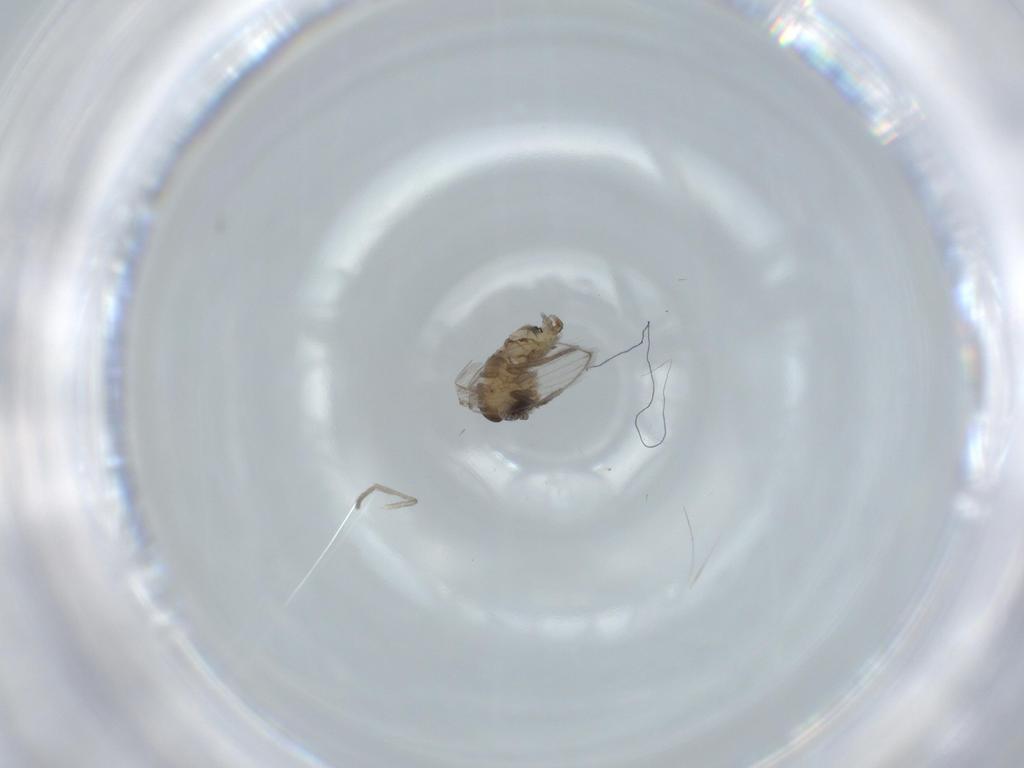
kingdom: Animalia
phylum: Arthropoda
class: Insecta
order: Diptera
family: Psychodidae
